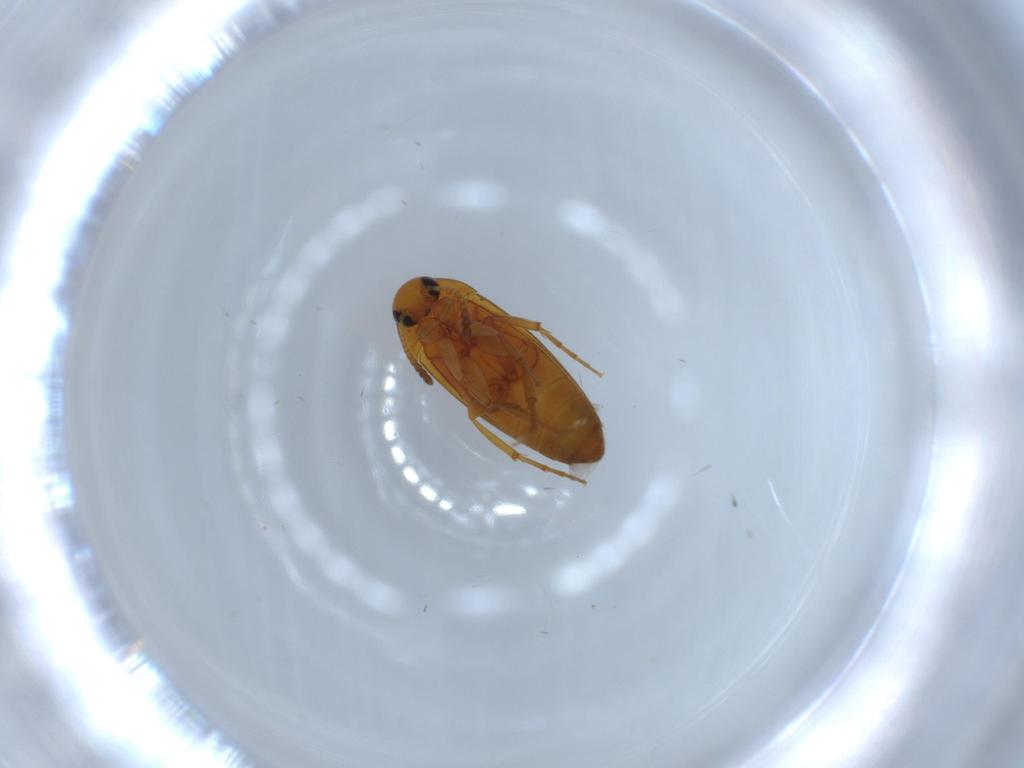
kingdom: Animalia
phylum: Arthropoda
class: Insecta
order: Coleoptera
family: Scraptiidae
